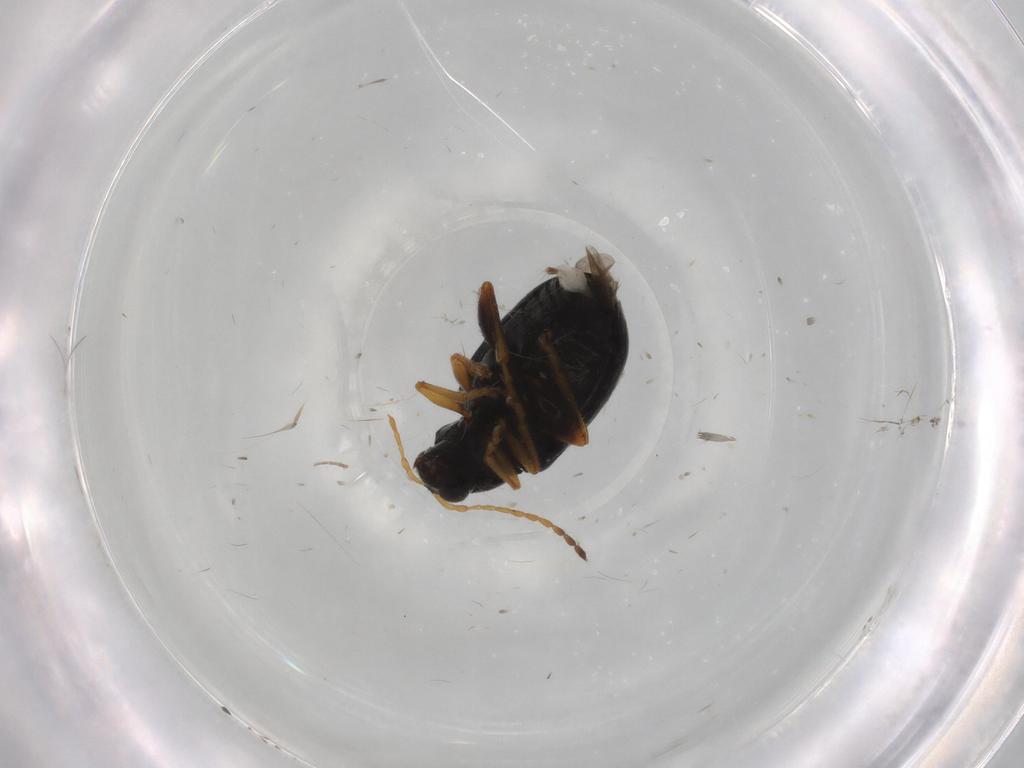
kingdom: Animalia
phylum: Arthropoda
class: Insecta
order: Coleoptera
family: Chrysomelidae
